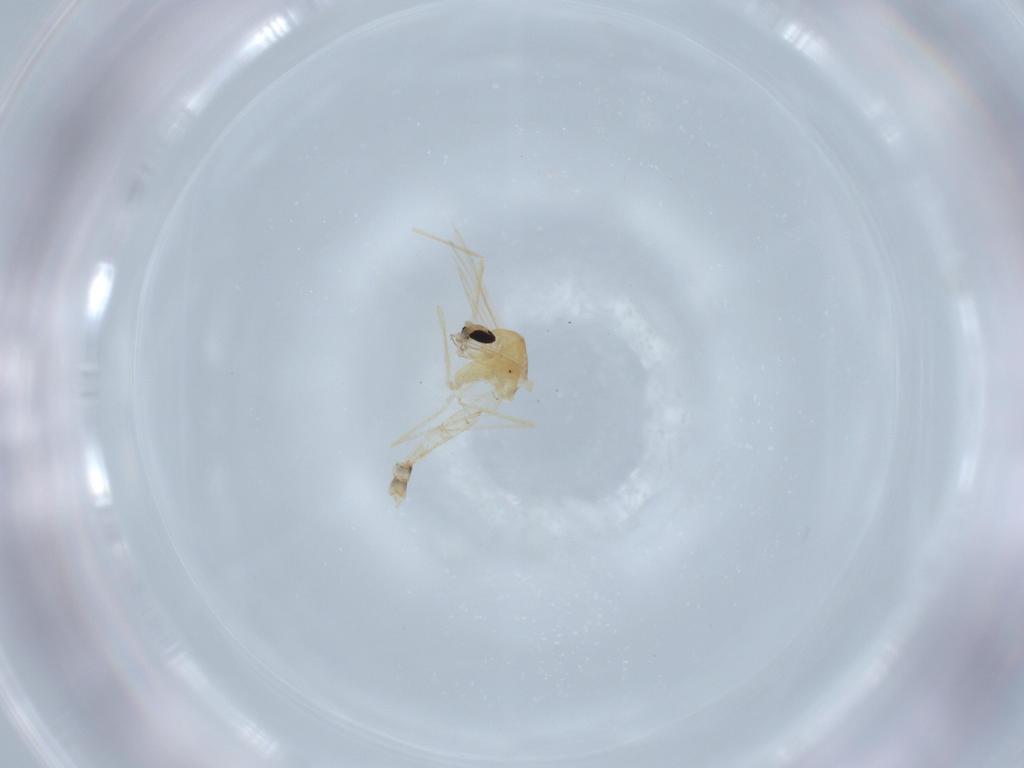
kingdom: Animalia
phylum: Arthropoda
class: Insecta
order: Diptera
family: Chironomidae
